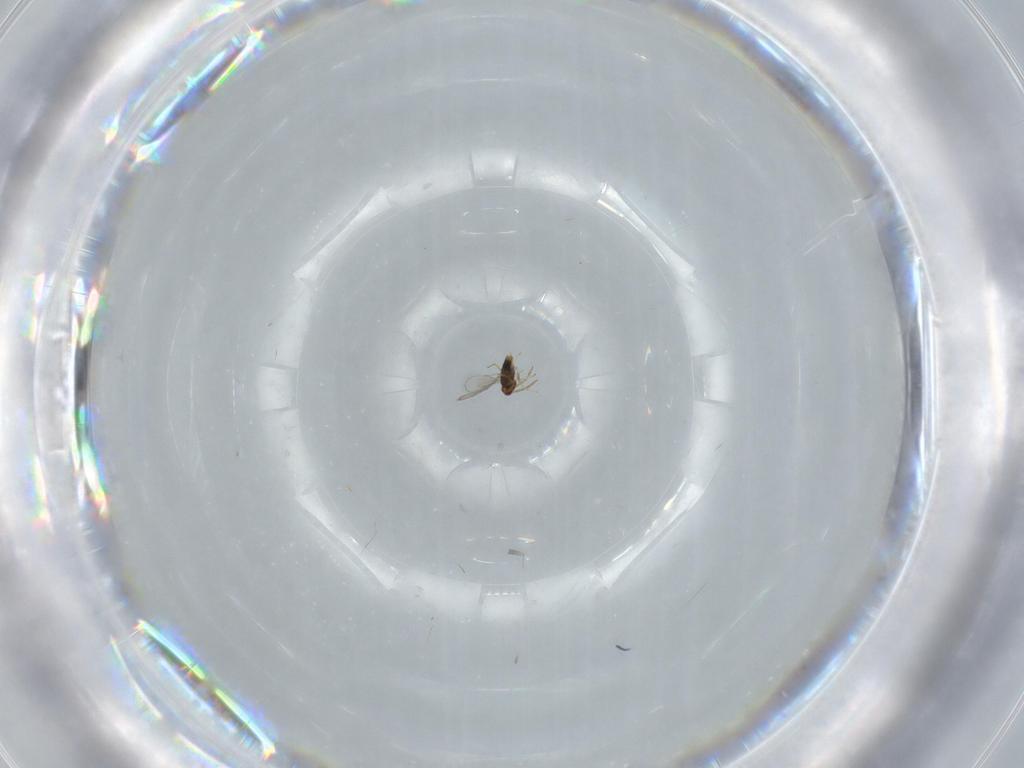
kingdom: Animalia
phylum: Arthropoda
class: Insecta
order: Hymenoptera
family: Aphelinidae
